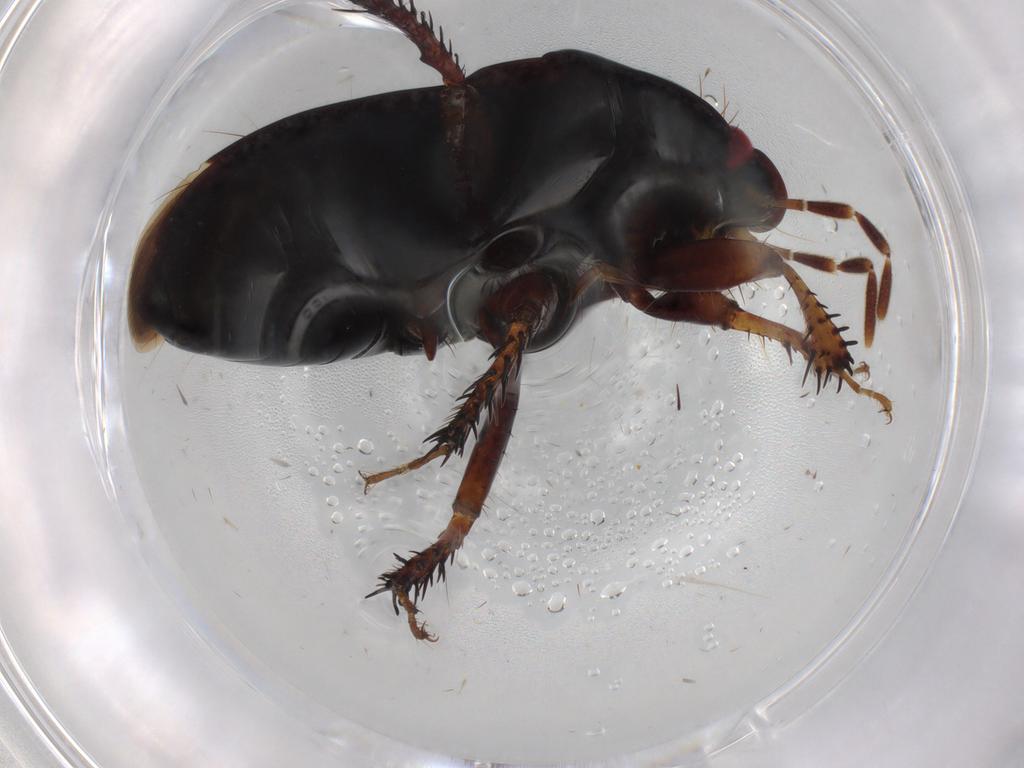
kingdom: Animalia
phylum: Arthropoda
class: Insecta
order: Hemiptera
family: Cydnidae
